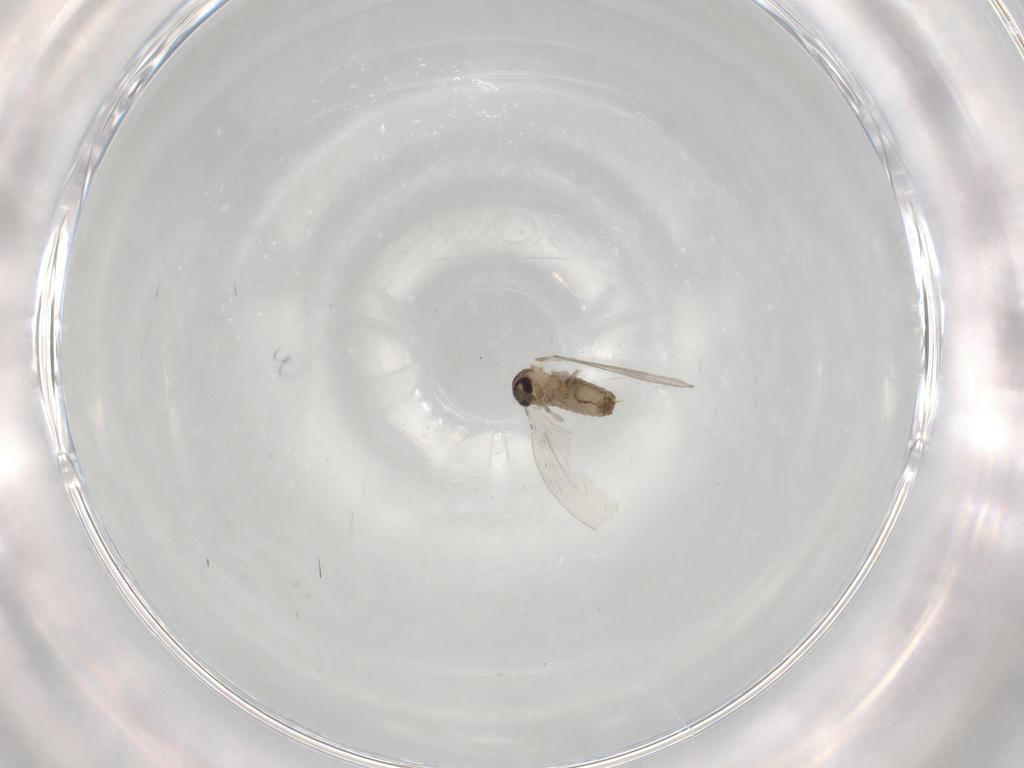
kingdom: Animalia
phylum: Arthropoda
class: Insecta
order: Diptera
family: Psychodidae
